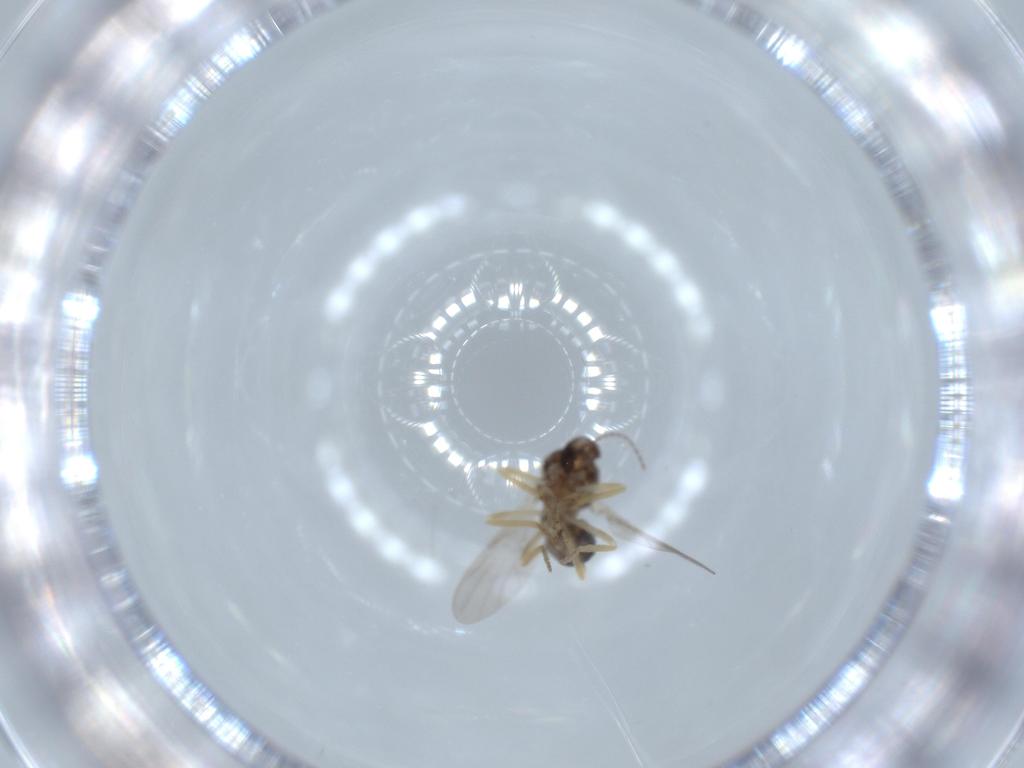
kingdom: Animalia
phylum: Arthropoda
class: Insecta
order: Diptera
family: Ceratopogonidae
